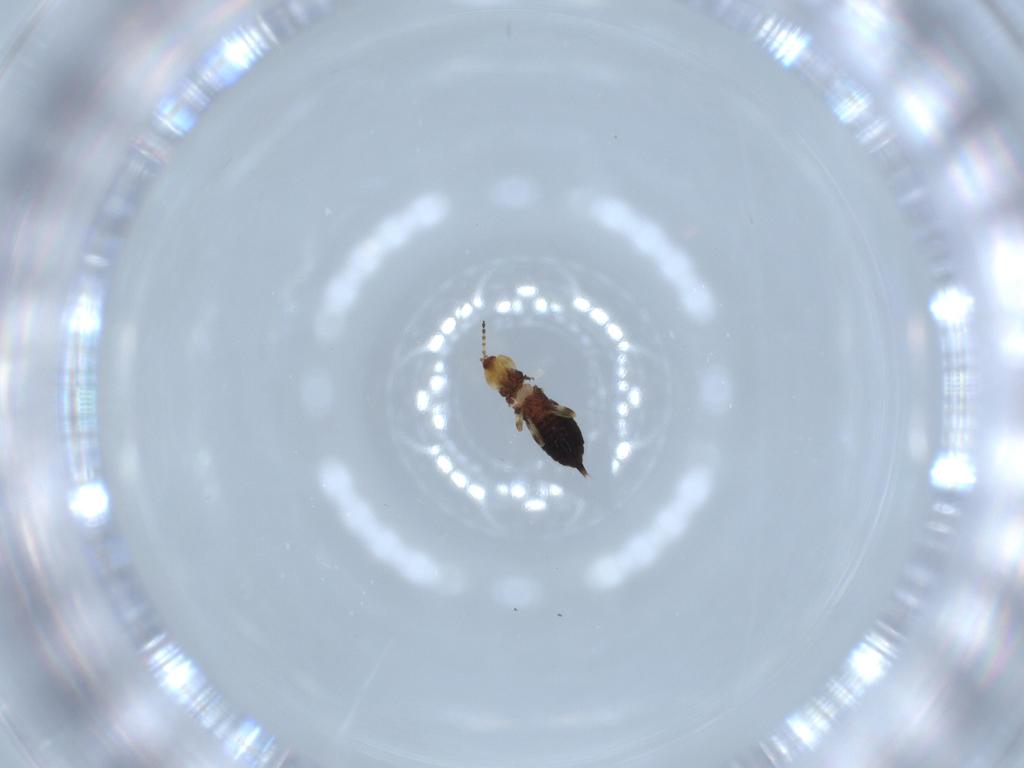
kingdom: Animalia
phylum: Arthropoda
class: Insecta
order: Thysanoptera
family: Phlaeothripidae
